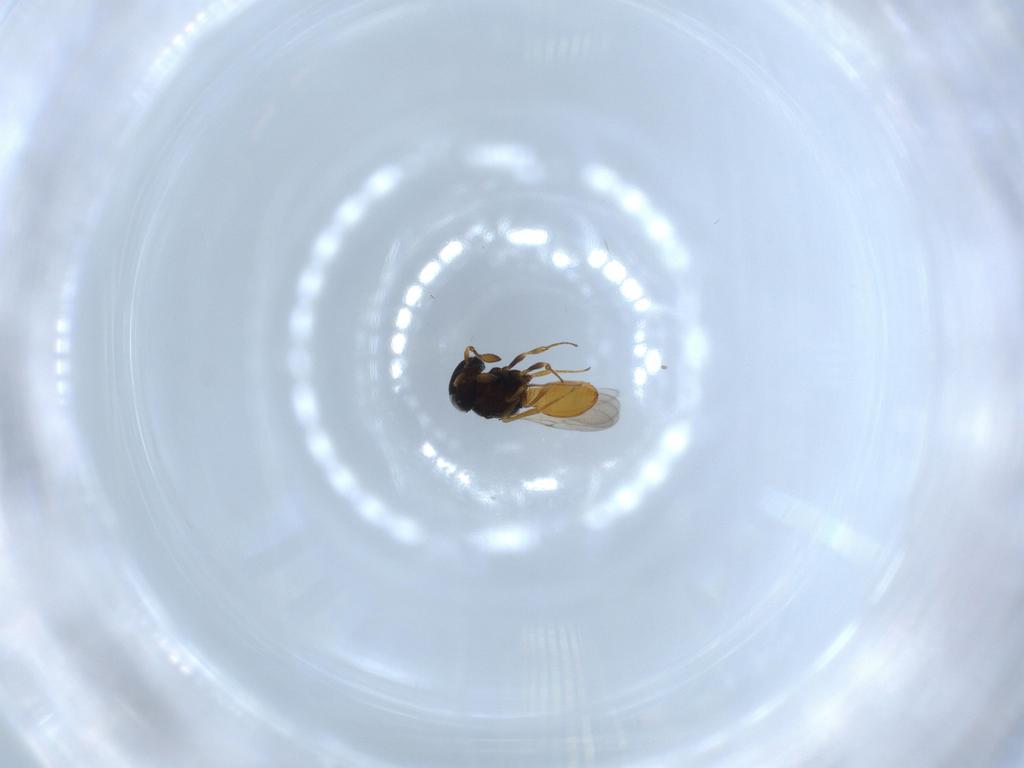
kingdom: Animalia
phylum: Arthropoda
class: Insecta
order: Hymenoptera
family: Scelionidae
